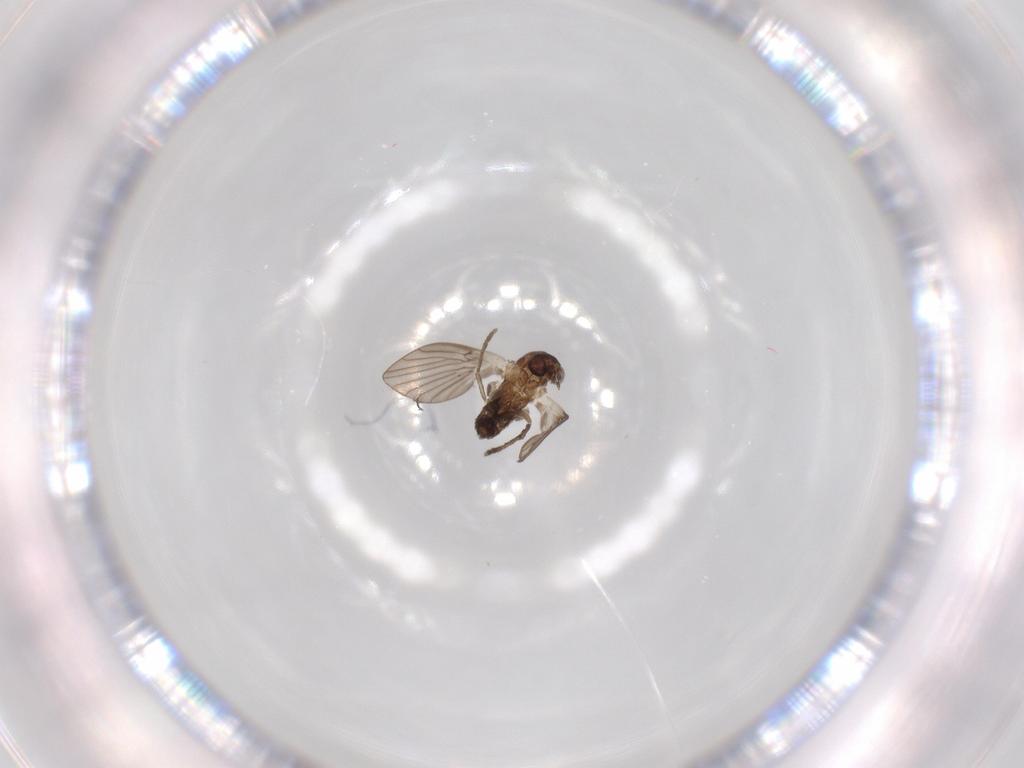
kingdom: Animalia
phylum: Arthropoda
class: Insecta
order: Diptera
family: Psychodidae
